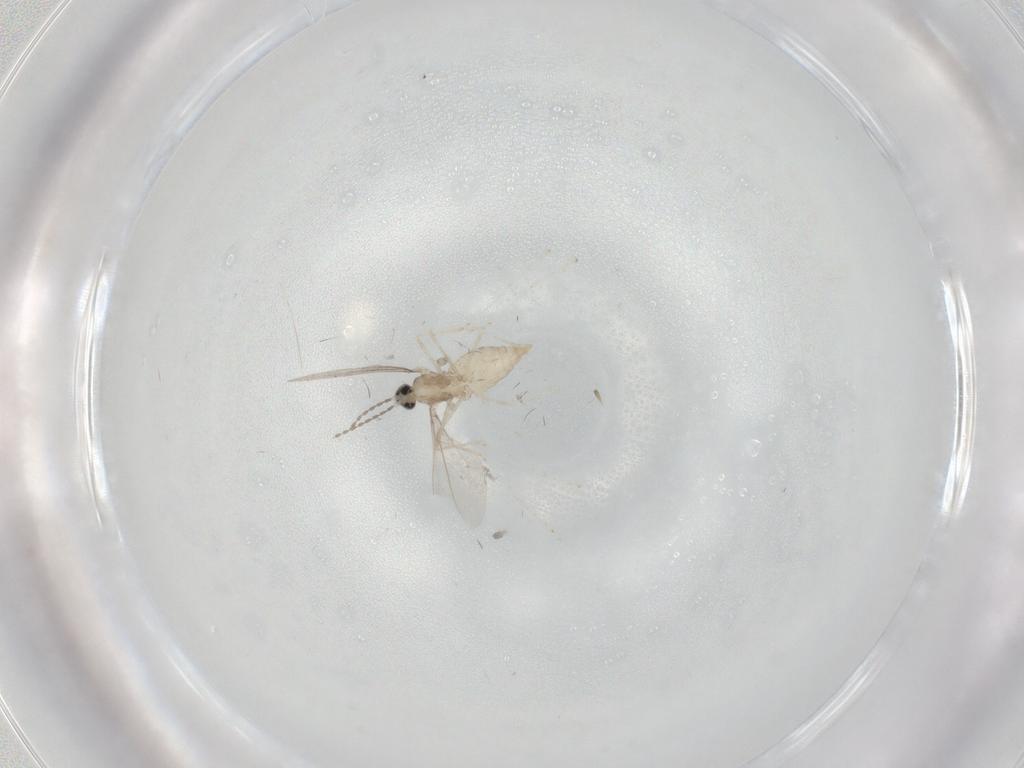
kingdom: Animalia
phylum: Arthropoda
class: Insecta
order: Diptera
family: Cecidomyiidae
